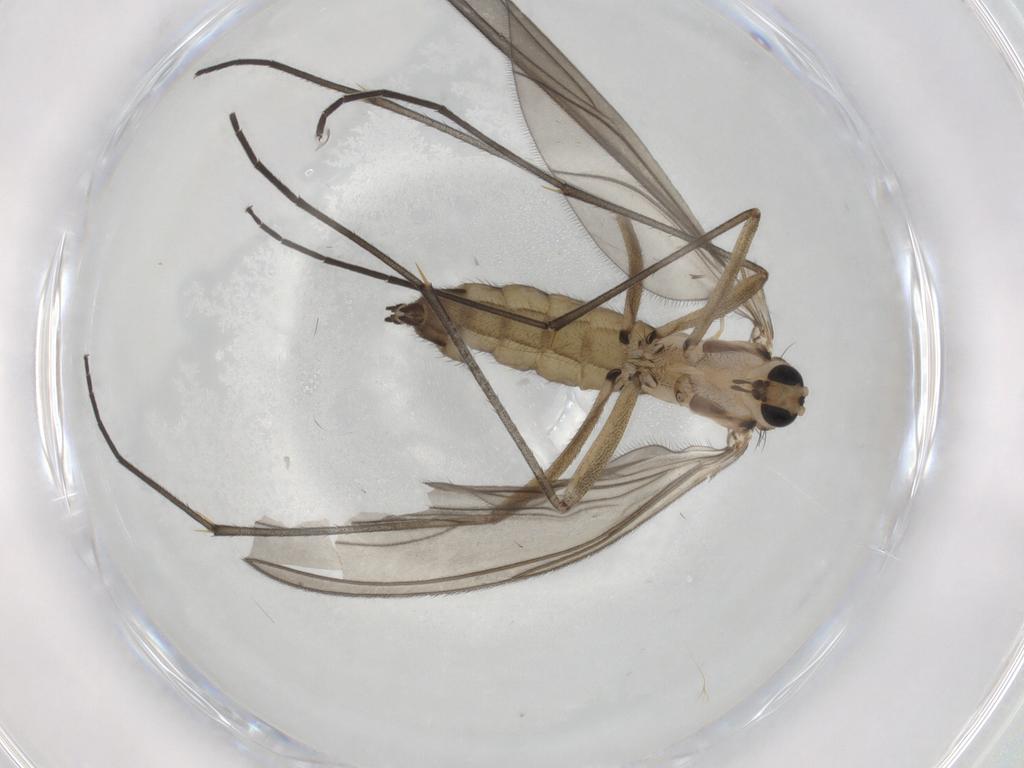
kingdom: Animalia
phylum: Arthropoda
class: Insecta
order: Diptera
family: Sciaridae
